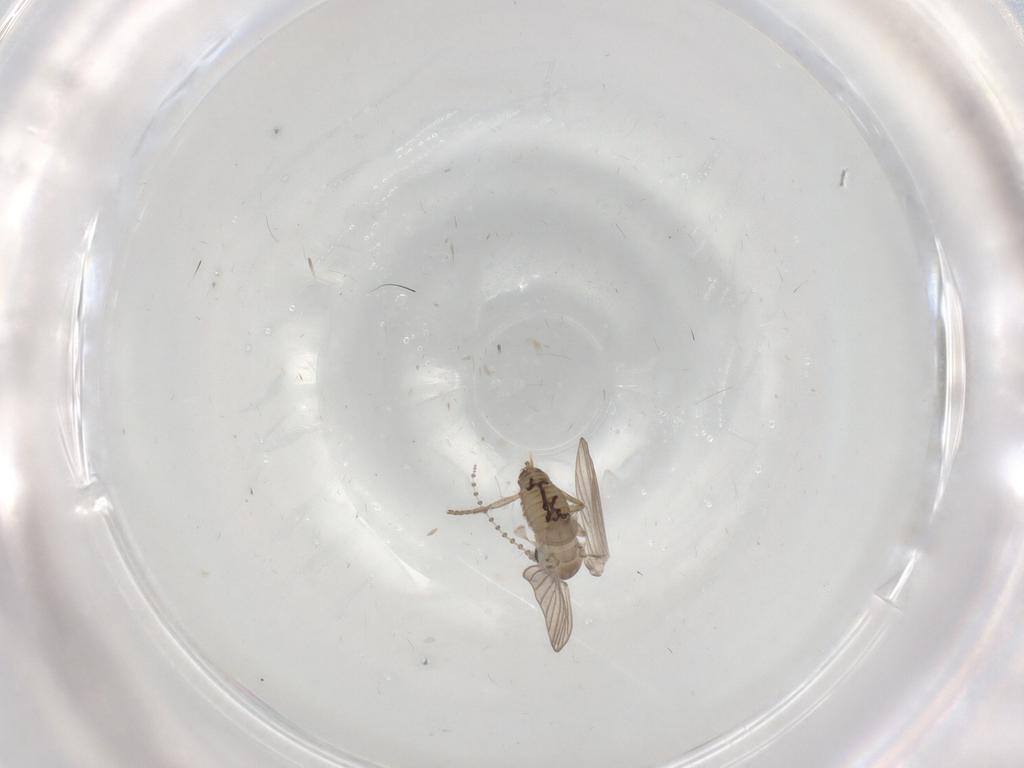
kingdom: Animalia
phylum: Arthropoda
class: Insecta
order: Diptera
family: Psychodidae
